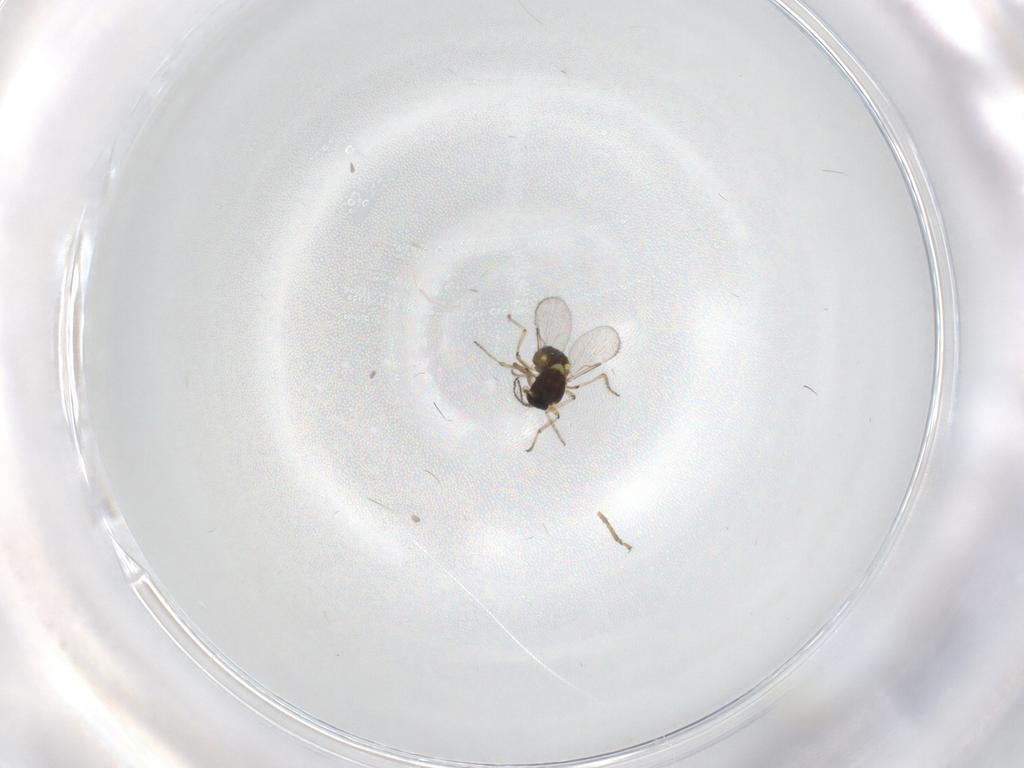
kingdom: Animalia
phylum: Arthropoda
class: Insecta
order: Diptera
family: Ceratopogonidae
